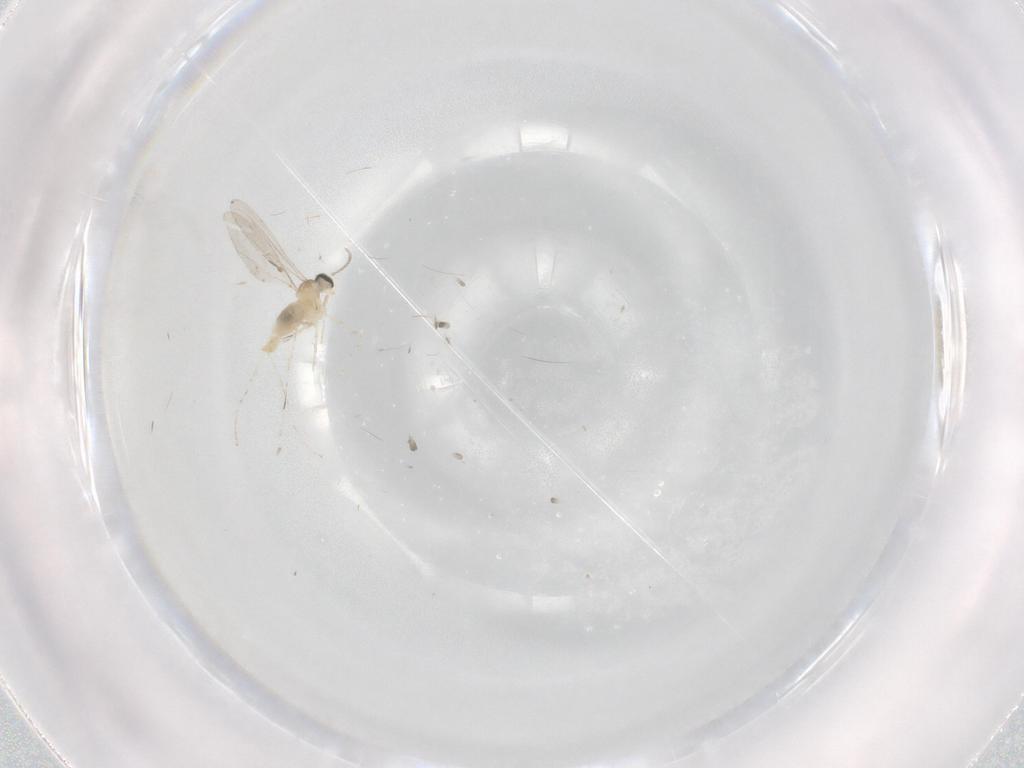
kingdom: Animalia
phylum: Arthropoda
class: Insecta
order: Diptera
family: Cecidomyiidae
